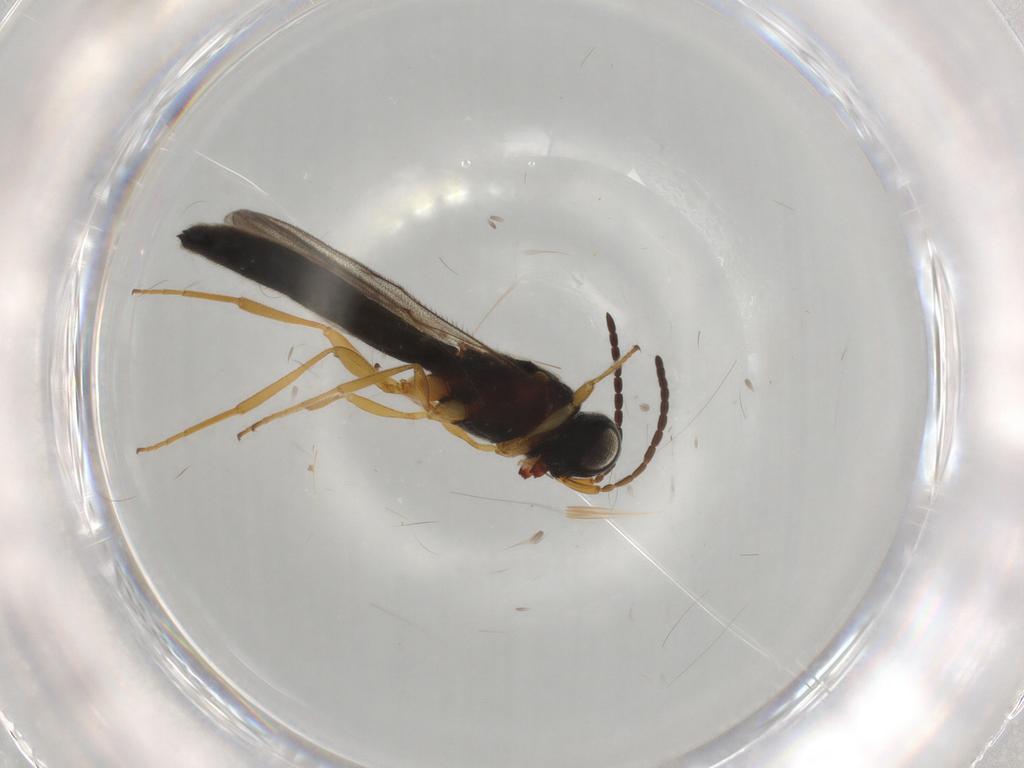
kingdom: Animalia
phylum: Arthropoda
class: Insecta
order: Hymenoptera
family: Scelionidae
